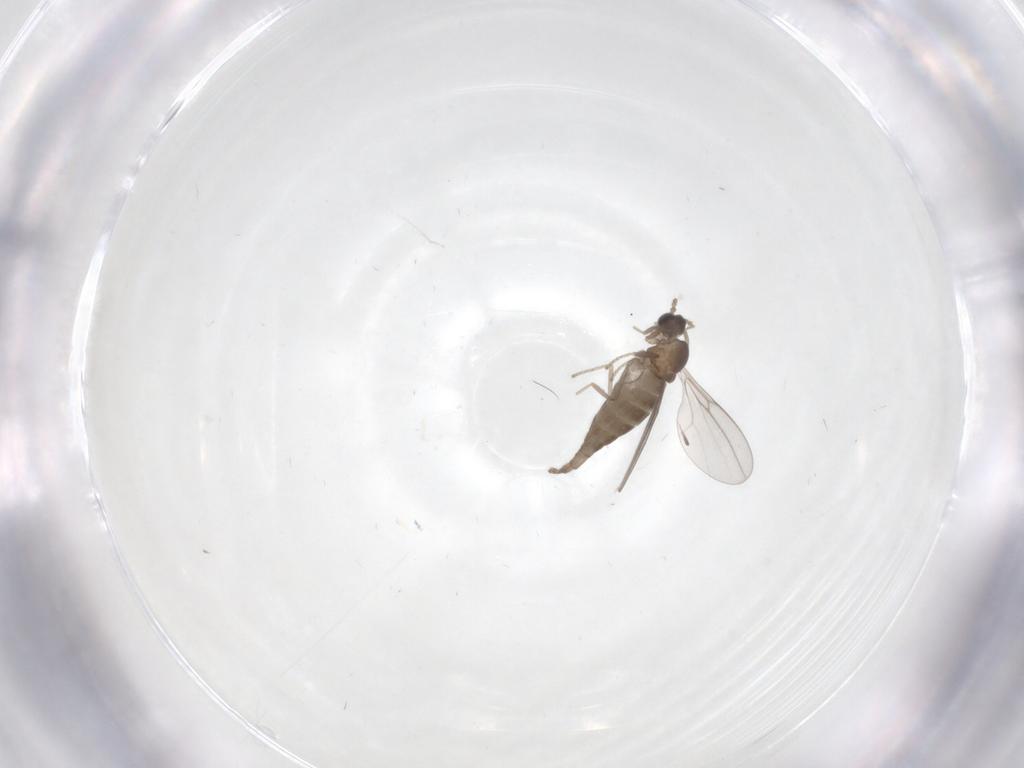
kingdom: Animalia
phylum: Arthropoda
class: Insecta
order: Diptera
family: Cecidomyiidae
